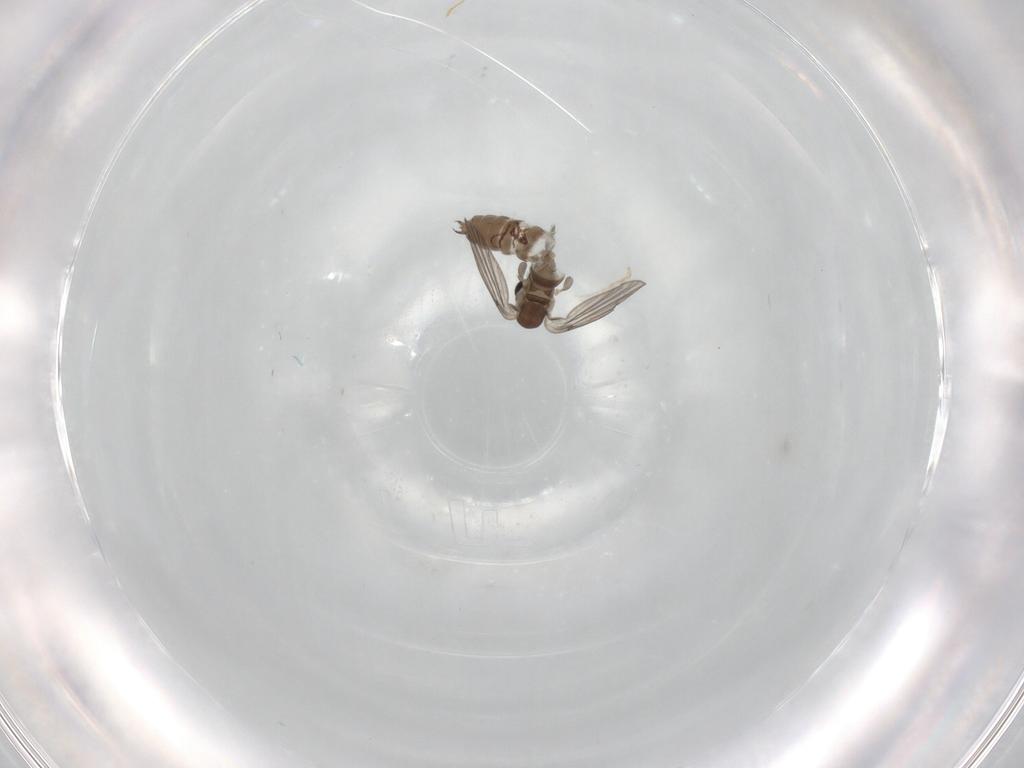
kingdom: Animalia
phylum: Arthropoda
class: Insecta
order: Diptera
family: Psychodidae
